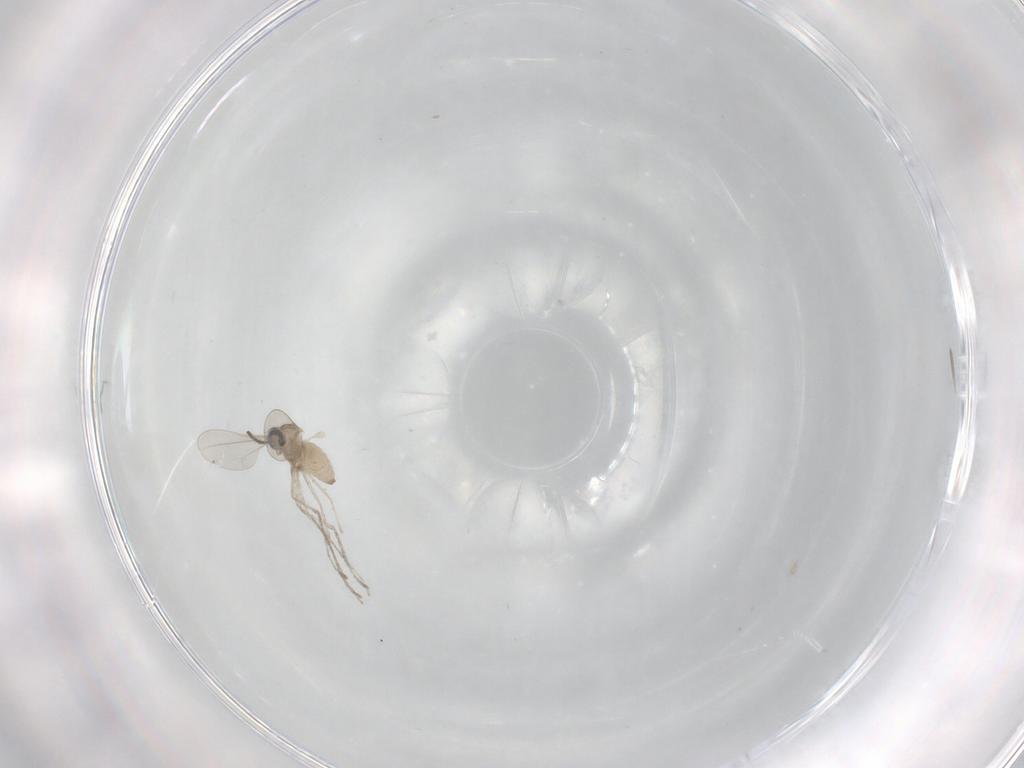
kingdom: Animalia
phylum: Arthropoda
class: Insecta
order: Diptera
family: Cecidomyiidae
